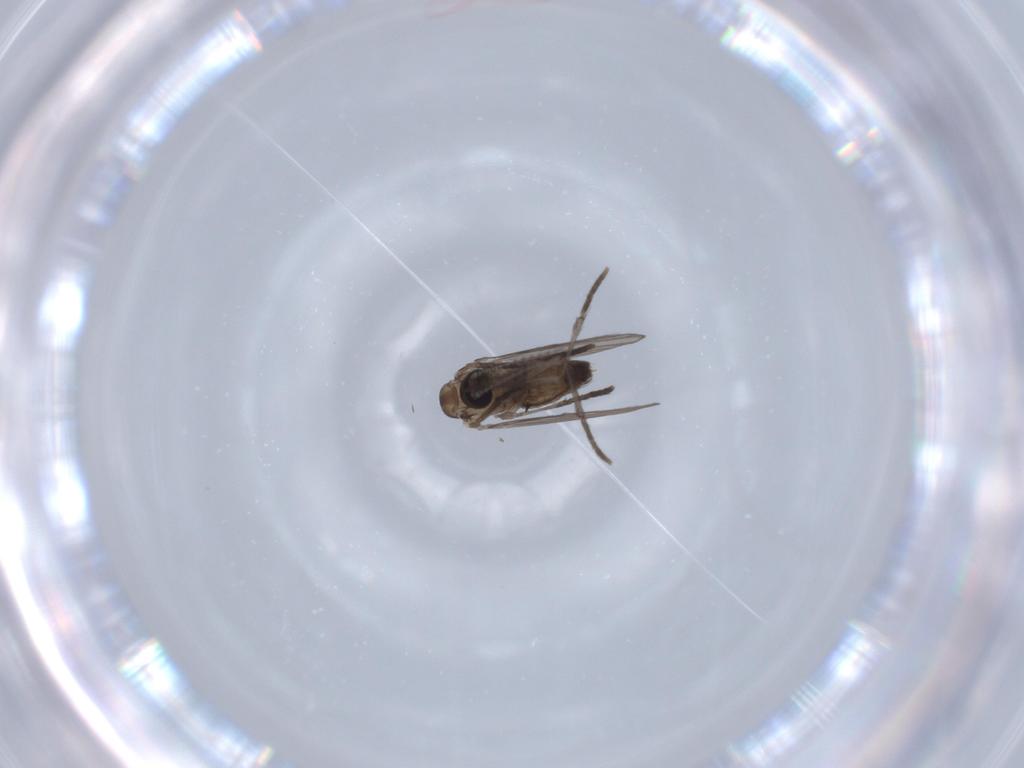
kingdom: Animalia
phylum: Arthropoda
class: Insecta
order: Diptera
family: Psychodidae
